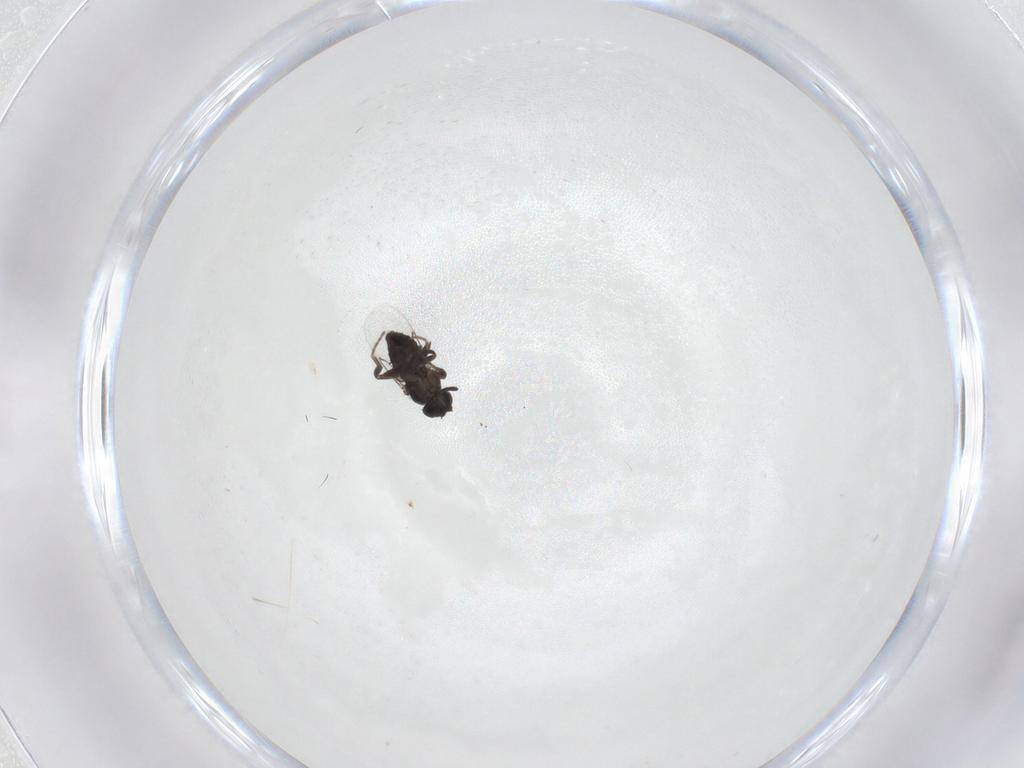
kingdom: Animalia
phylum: Arthropoda
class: Insecta
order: Diptera
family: Phoridae
